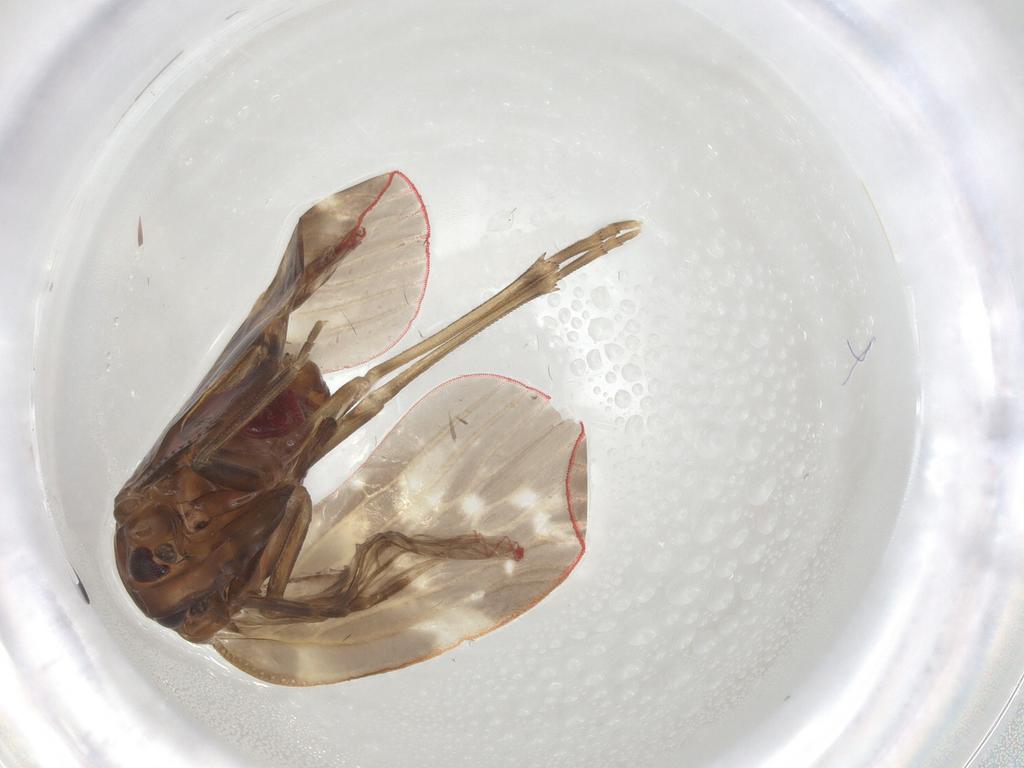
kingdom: Animalia
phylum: Arthropoda
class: Insecta
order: Hemiptera
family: Achilidae
